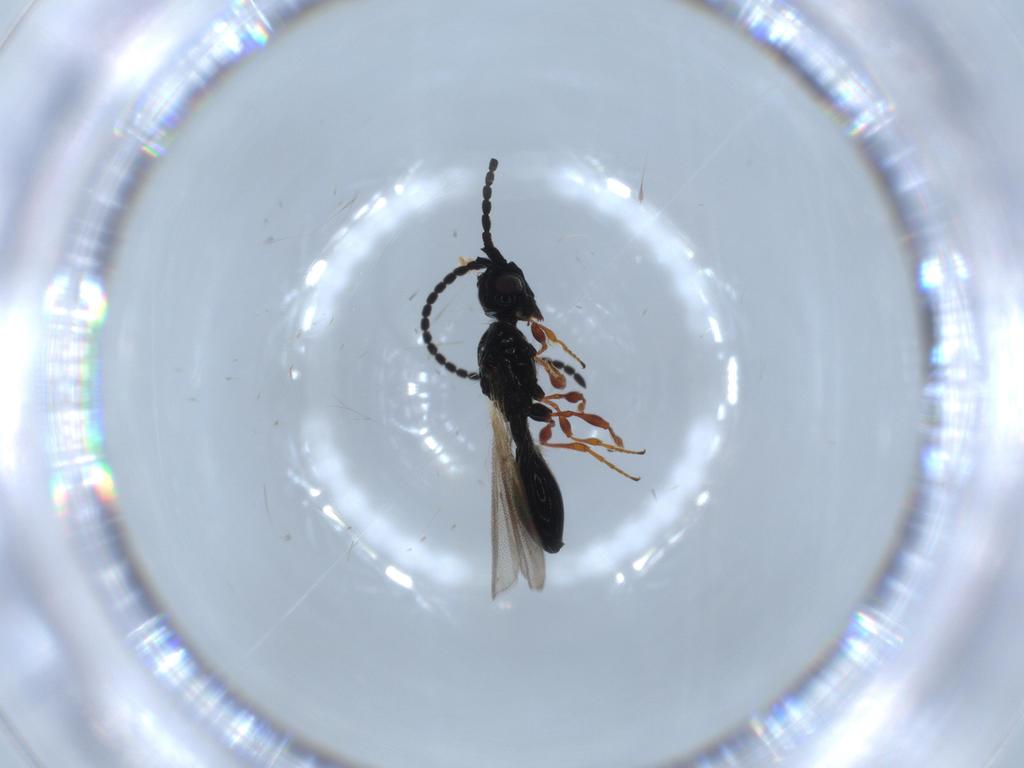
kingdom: Animalia
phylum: Arthropoda
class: Insecta
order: Hymenoptera
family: Diapriidae
